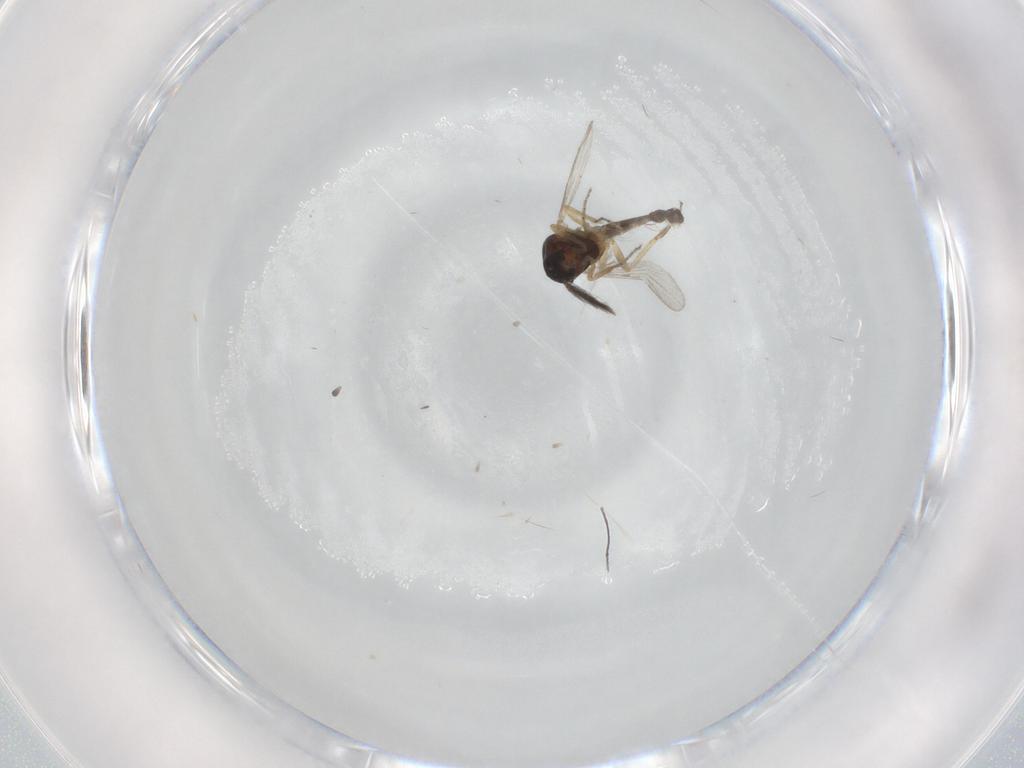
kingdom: Animalia
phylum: Arthropoda
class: Insecta
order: Diptera
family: Ceratopogonidae
